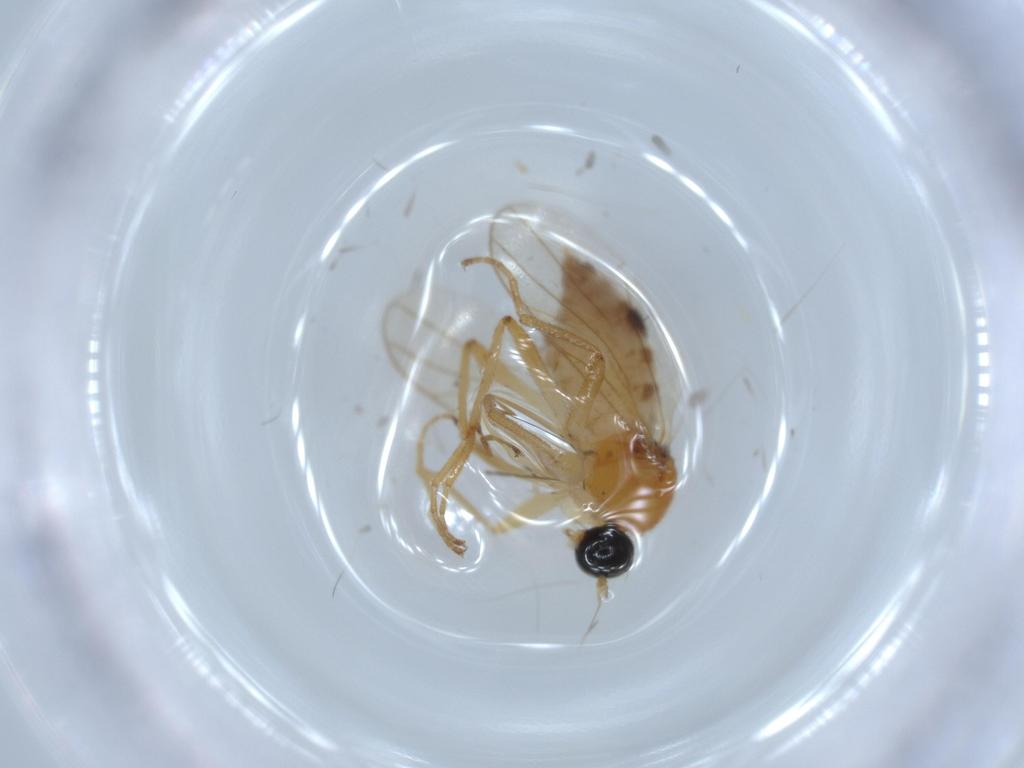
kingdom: Animalia
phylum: Arthropoda
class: Insecta
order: Diptera
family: Hybotidae
